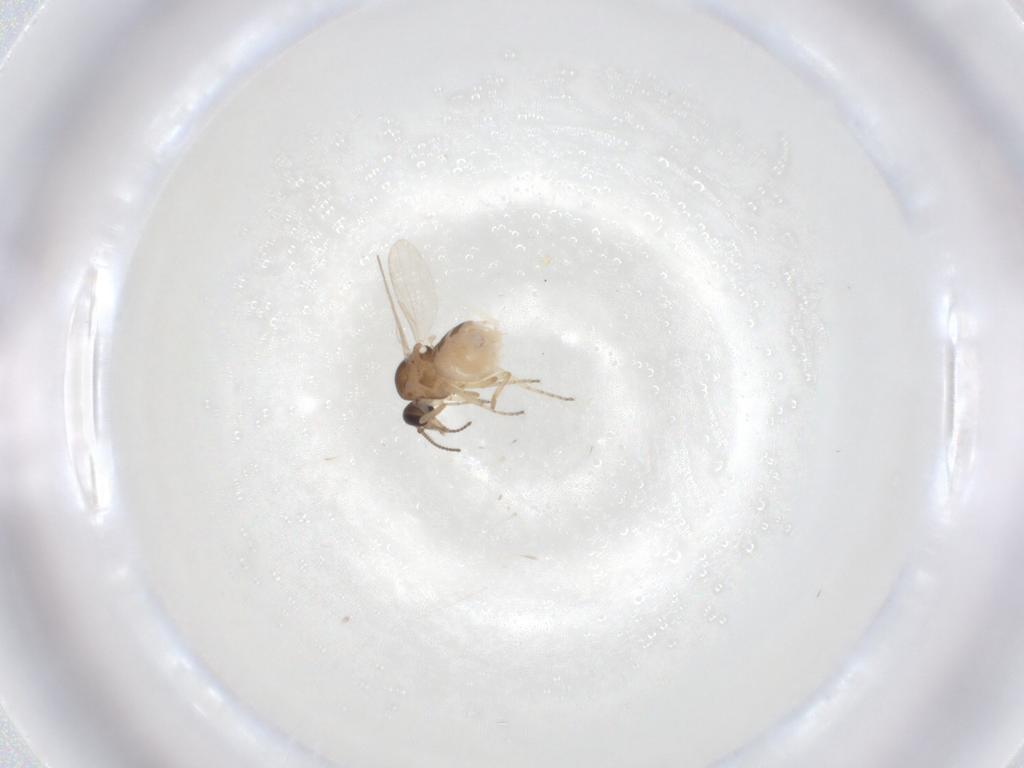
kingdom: Animalia
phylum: Arthropoda
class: Insecta
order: Diptera
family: Ceratopogonidae
